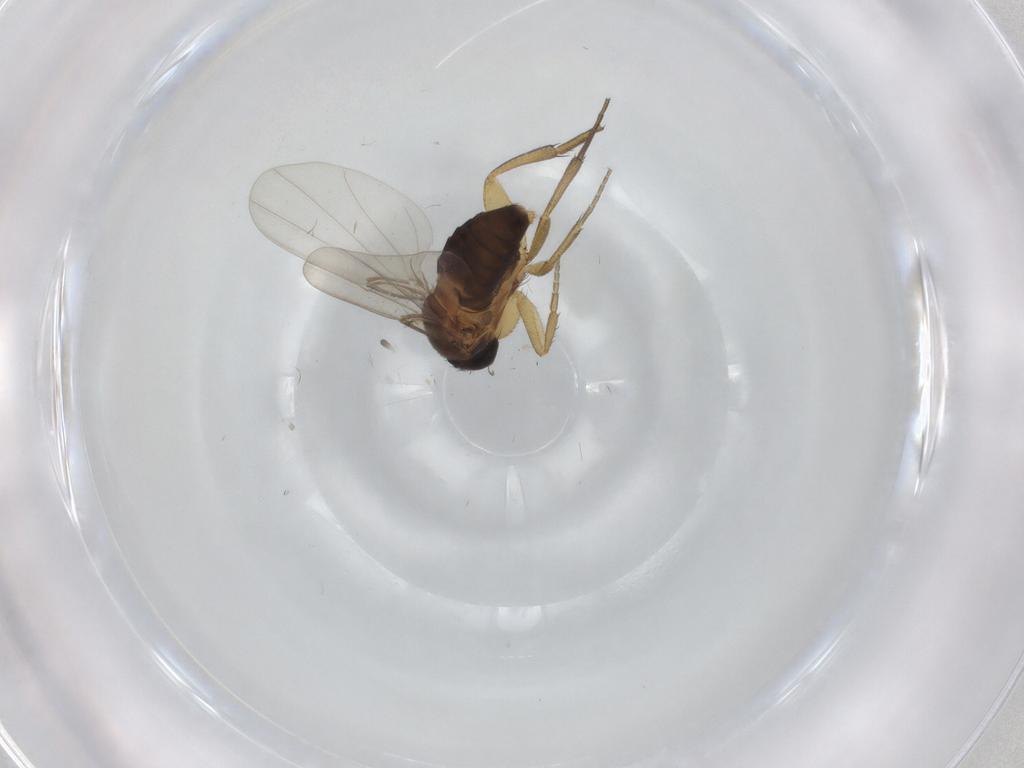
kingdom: Animalia
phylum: Arthropoda
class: Insecta
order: Diptera
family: Phoridae
